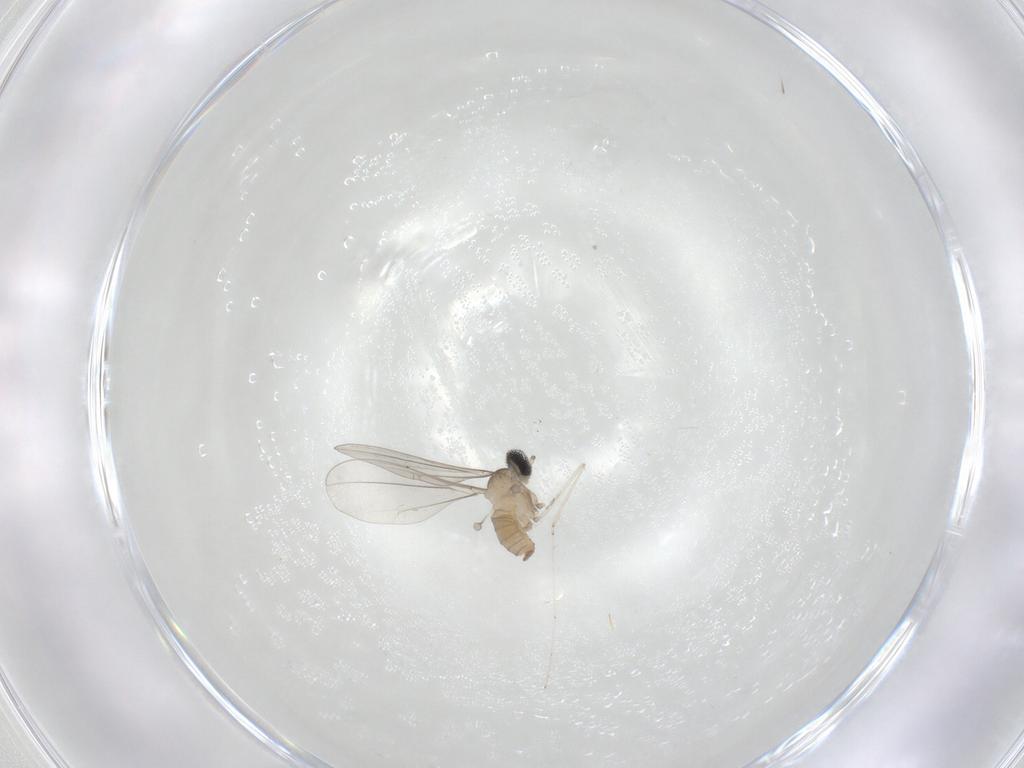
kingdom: Animalia
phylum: Arthropoda
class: Insecta
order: Diptera
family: Cecidomyiidae
